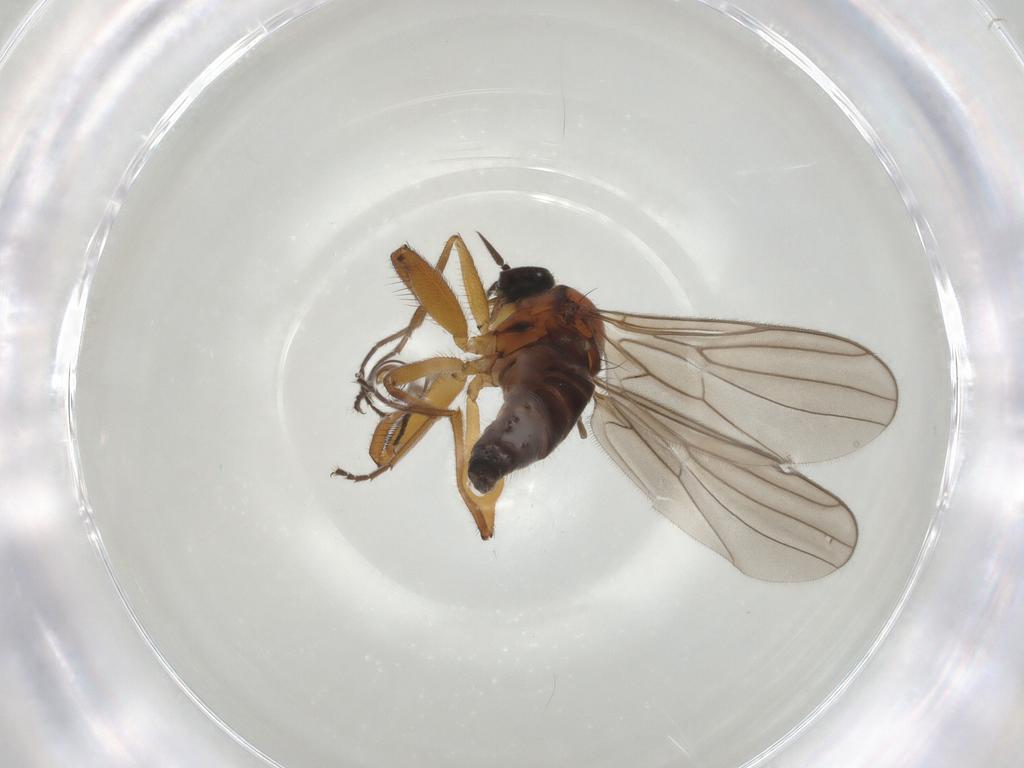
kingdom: Animalia
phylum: Arthropoda
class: Insecta
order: Diptera
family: Hybotidae
